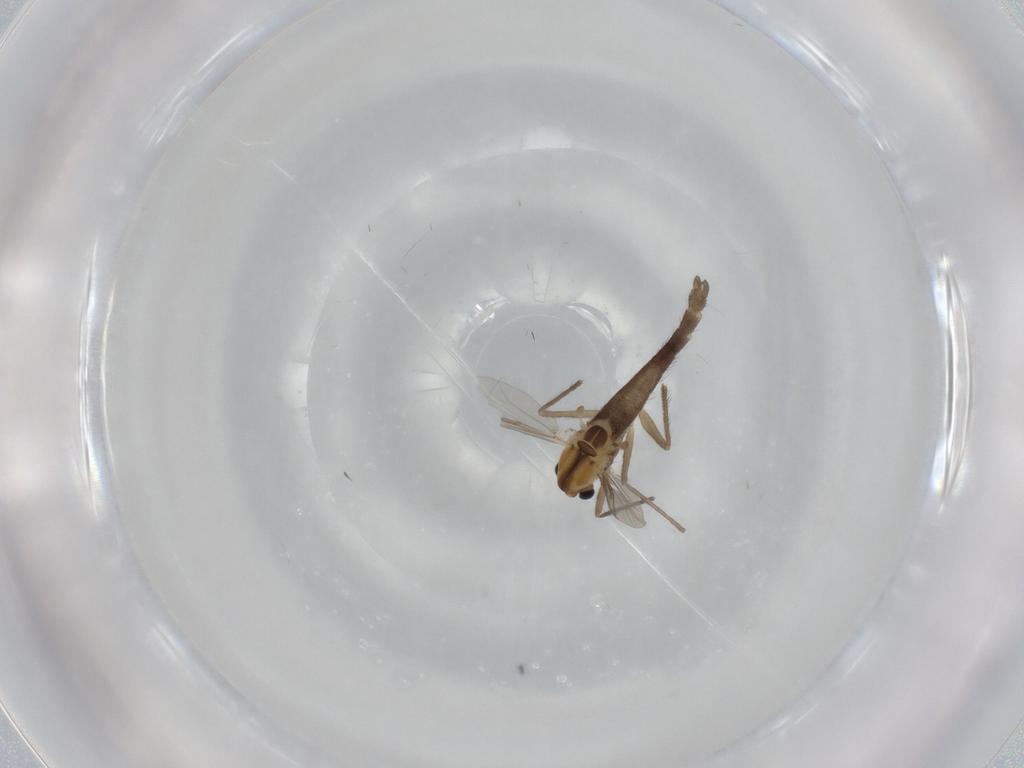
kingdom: Animalia
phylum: Arthropoda
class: Insecta
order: Diptera
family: Chironomidae
